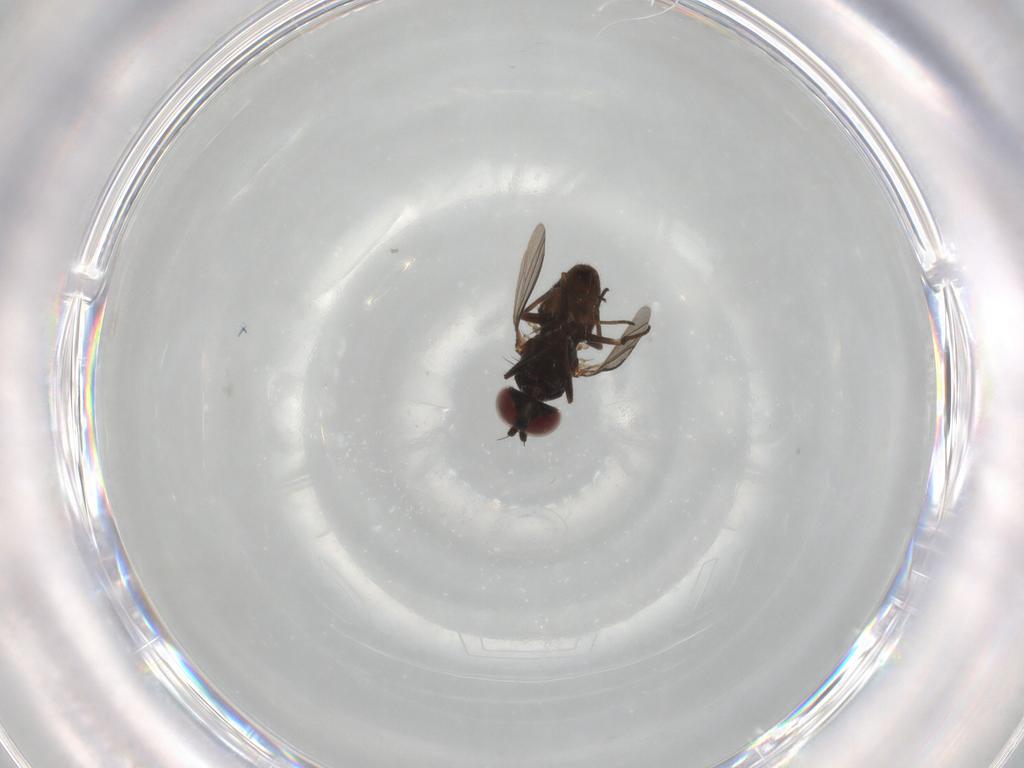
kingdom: Animalia
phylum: Arthropoda
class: Insecta
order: Diptera
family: Dolichopodidae
